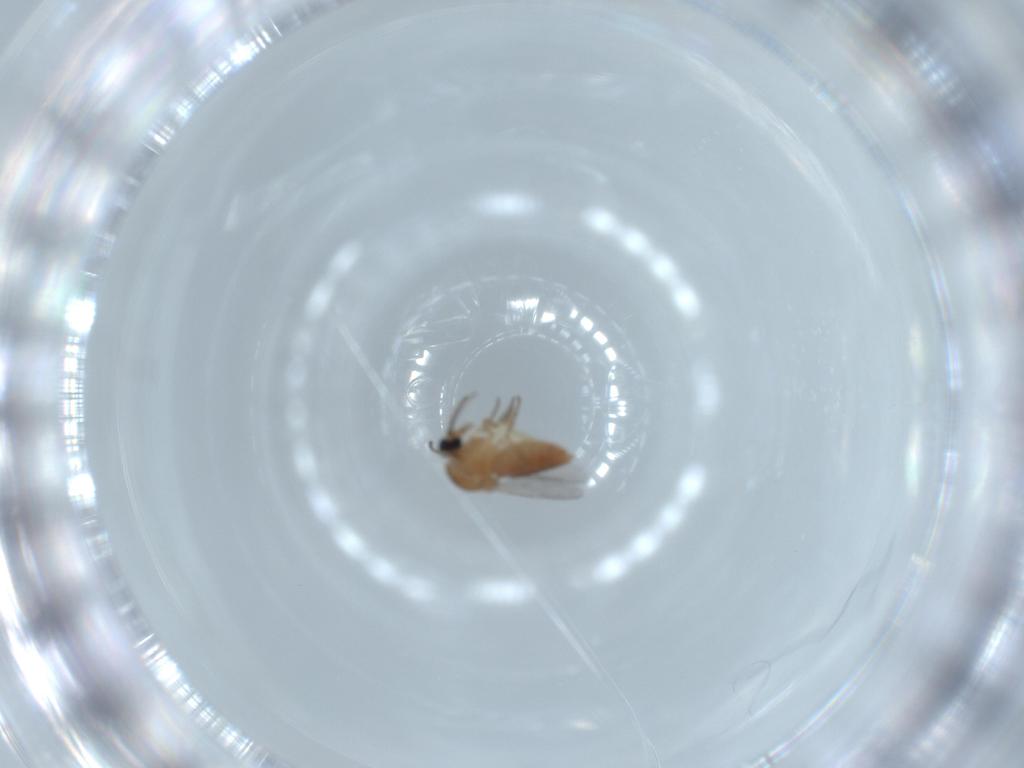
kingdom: Animalia
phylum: Arthropoda
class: Insecta
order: Diptera
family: Ceratopogonidae
